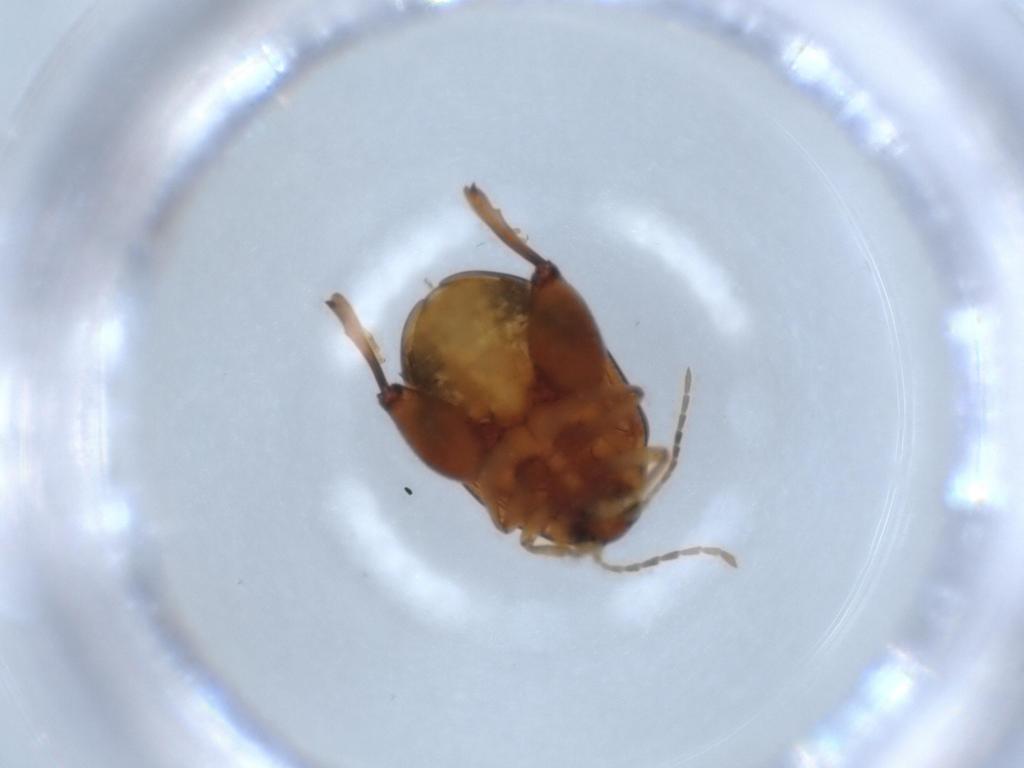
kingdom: Animalia
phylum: Arthropoda
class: Insecta
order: Coleoptera
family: Chrysomelidae
